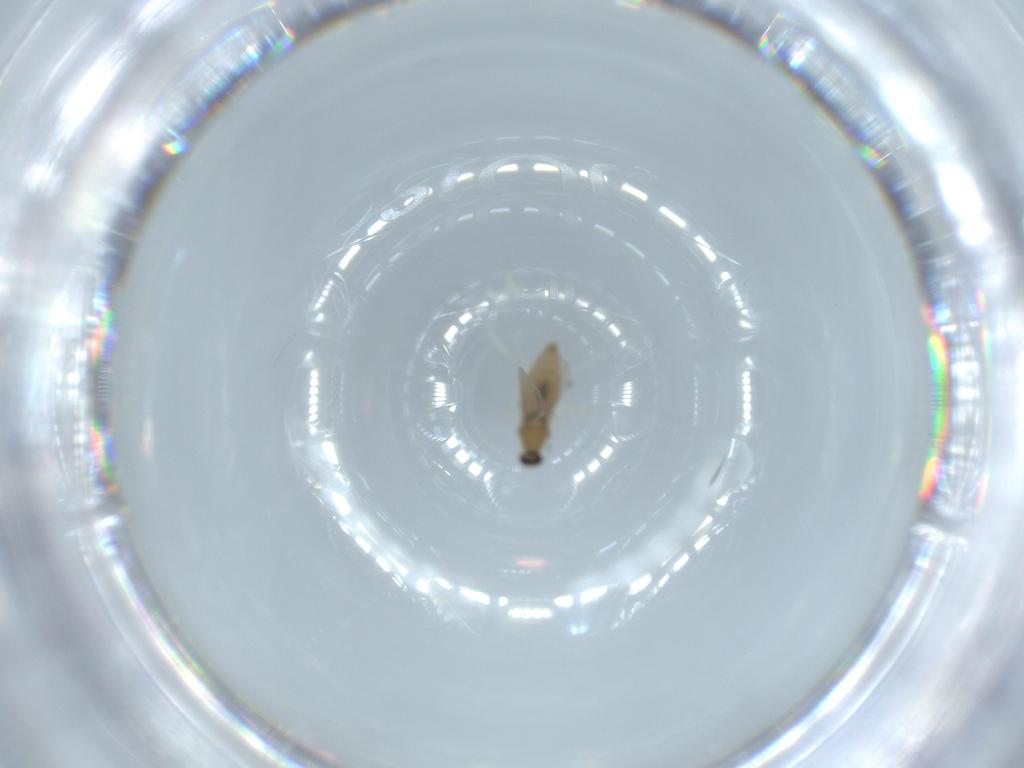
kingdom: Animalia
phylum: Arthropoda
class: Insecta
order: Diptera
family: Cecidomyiidae
